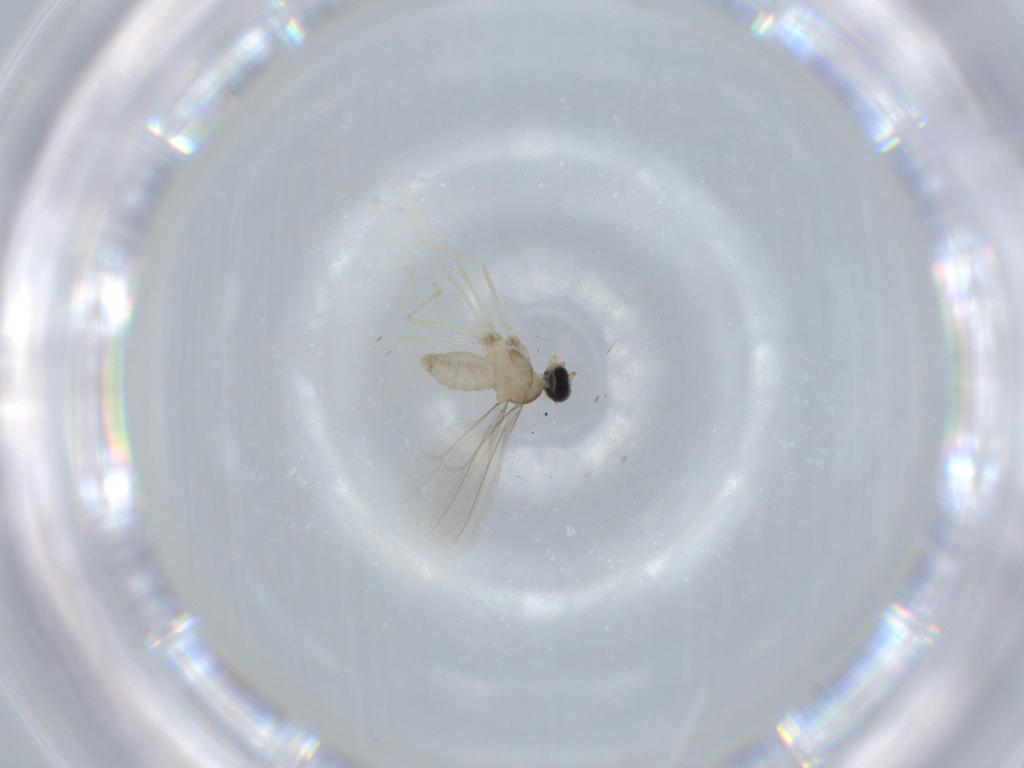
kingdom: Animalia
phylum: Arthropoda
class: Insecta
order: Diptera
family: Cecidomyiidae
